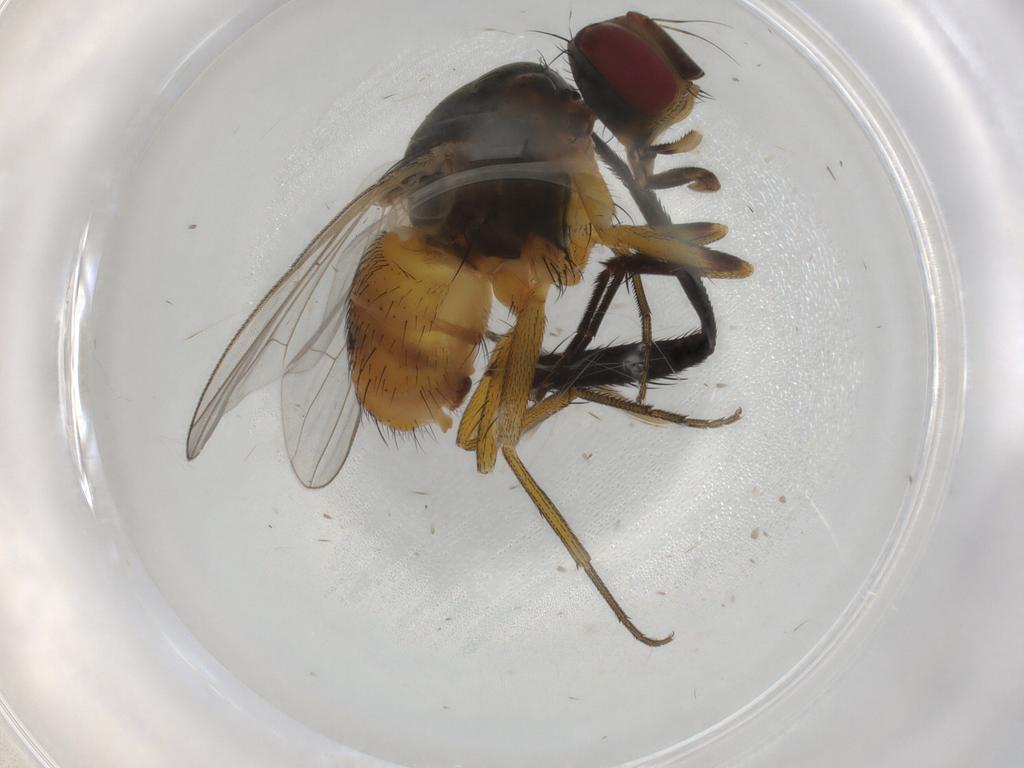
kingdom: Animalia
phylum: Arthropoda
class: Insecta
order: Diptera
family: Muscidae
